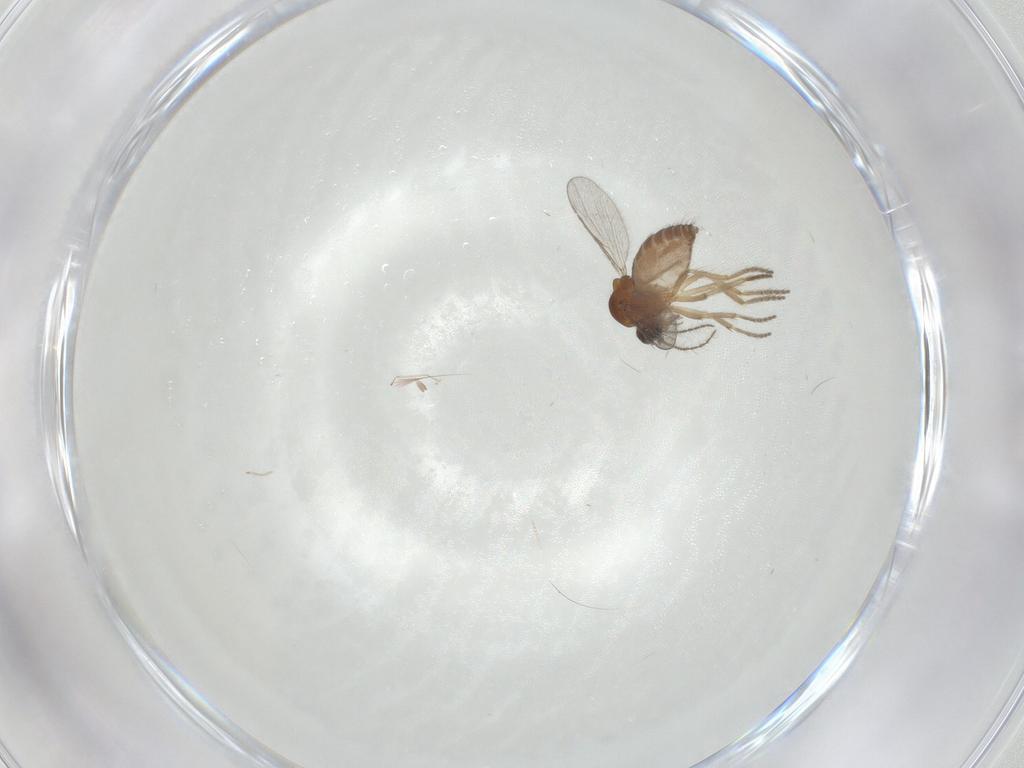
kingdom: Animalia
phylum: Arthropoda
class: Insecta
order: Diptera
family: Ceratopogonidae
